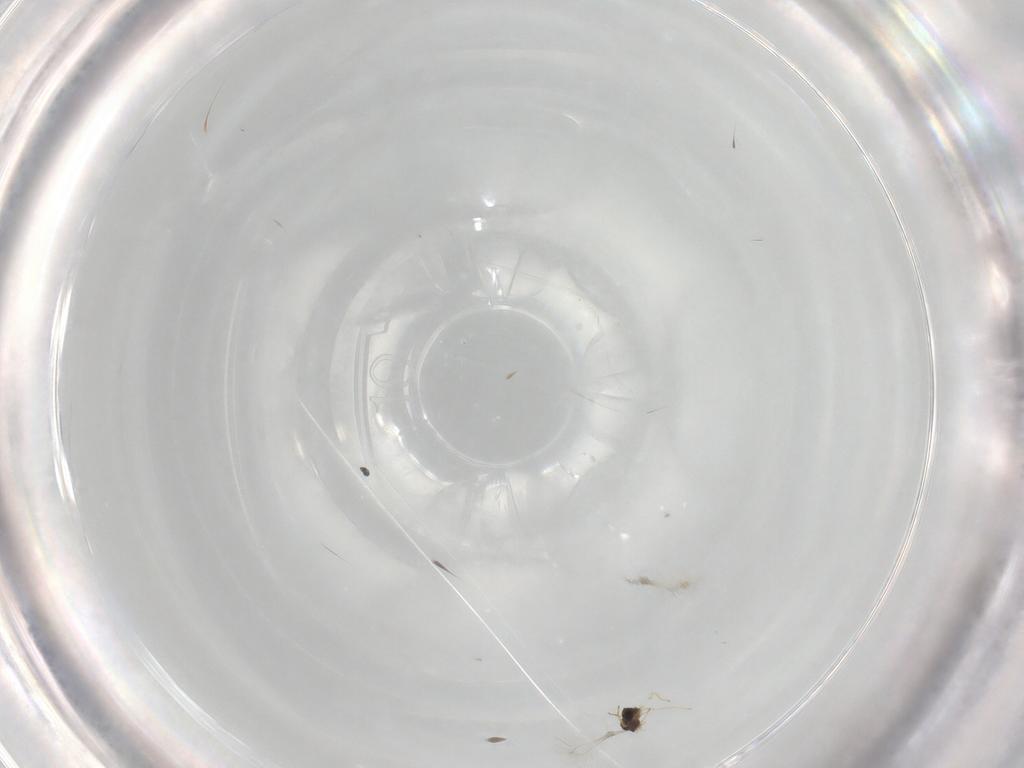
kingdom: Animalia
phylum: Arthropoda
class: Insecta
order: Hymenoptera
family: Mymaridae
